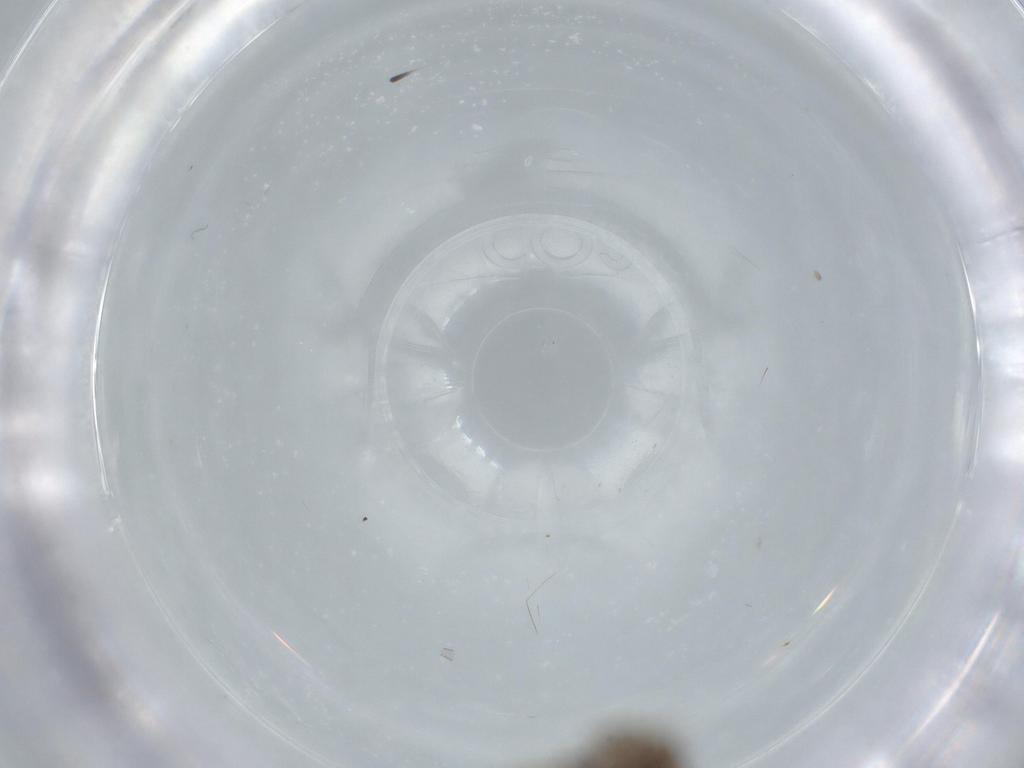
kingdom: Animalia
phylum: Arthropoda
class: Insecta
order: Psocodea
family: Lepidopsocidae
